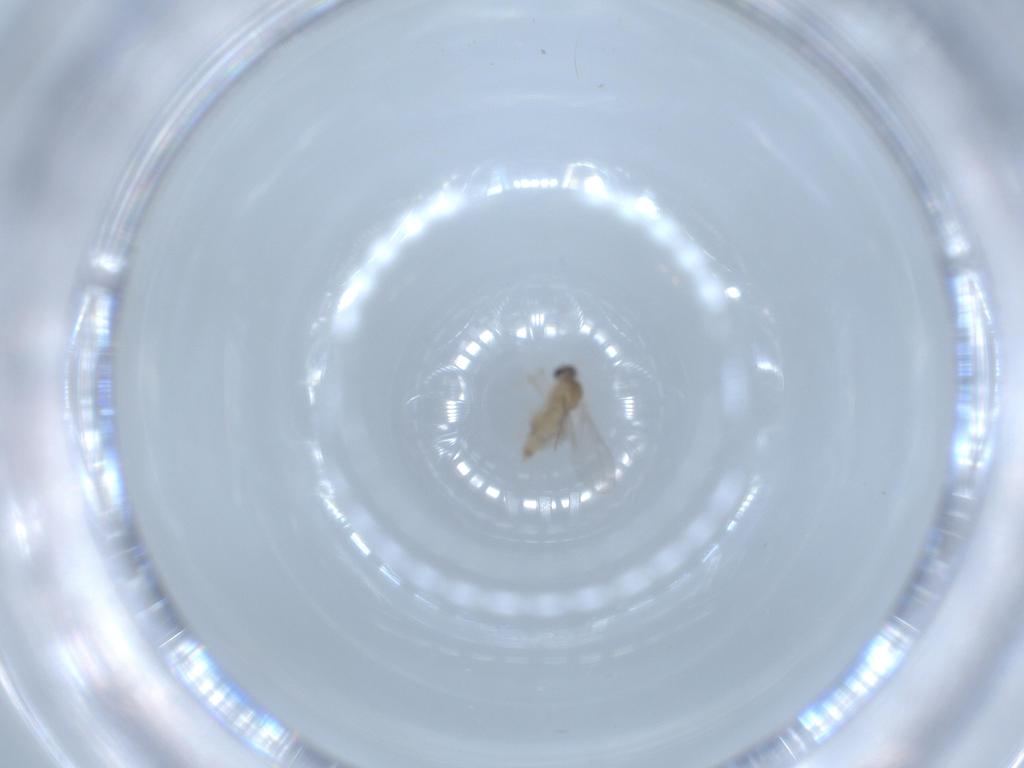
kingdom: Animalia
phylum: Arthropoda
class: Insecta
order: Diptera
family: Cecidomyiidae
